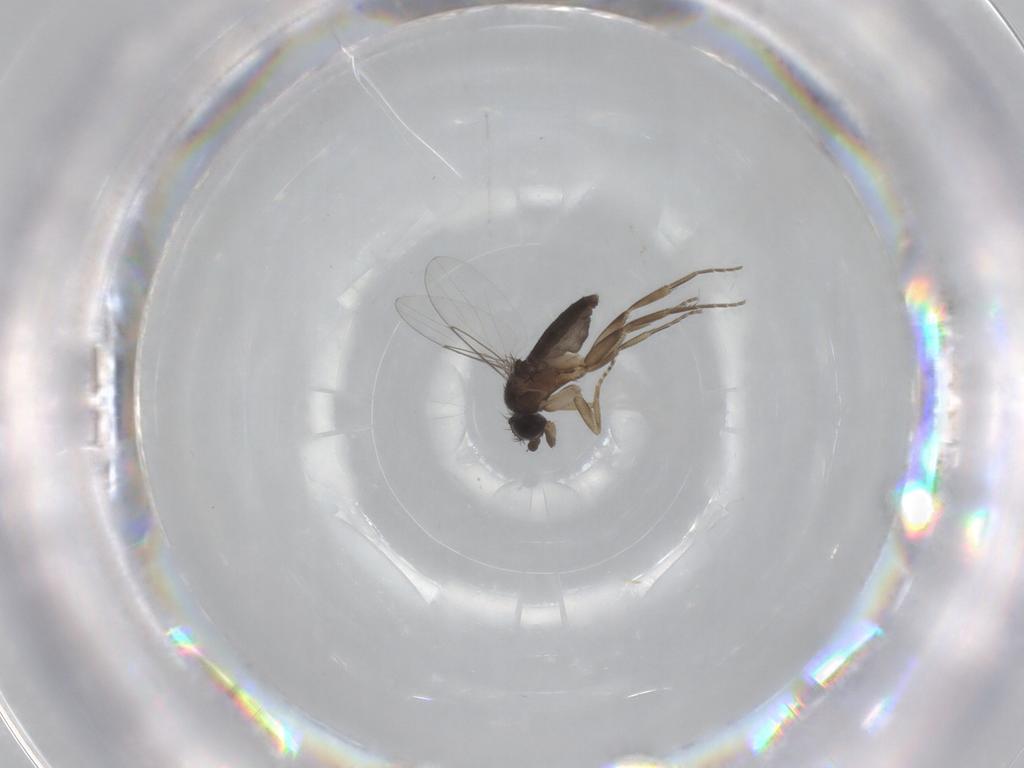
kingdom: Animalia
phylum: Arthropoda
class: Insecta
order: Diptera
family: Phoridae
